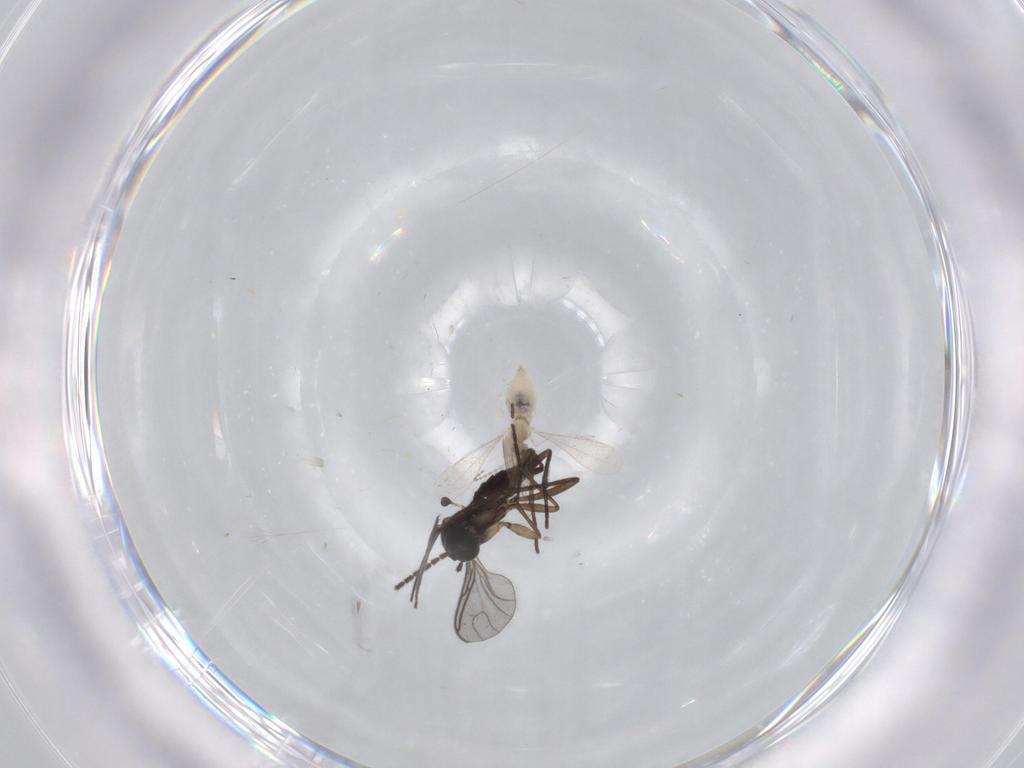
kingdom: Animalia
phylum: Arthropoda
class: Insecta
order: Diptera
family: Sciaridae
